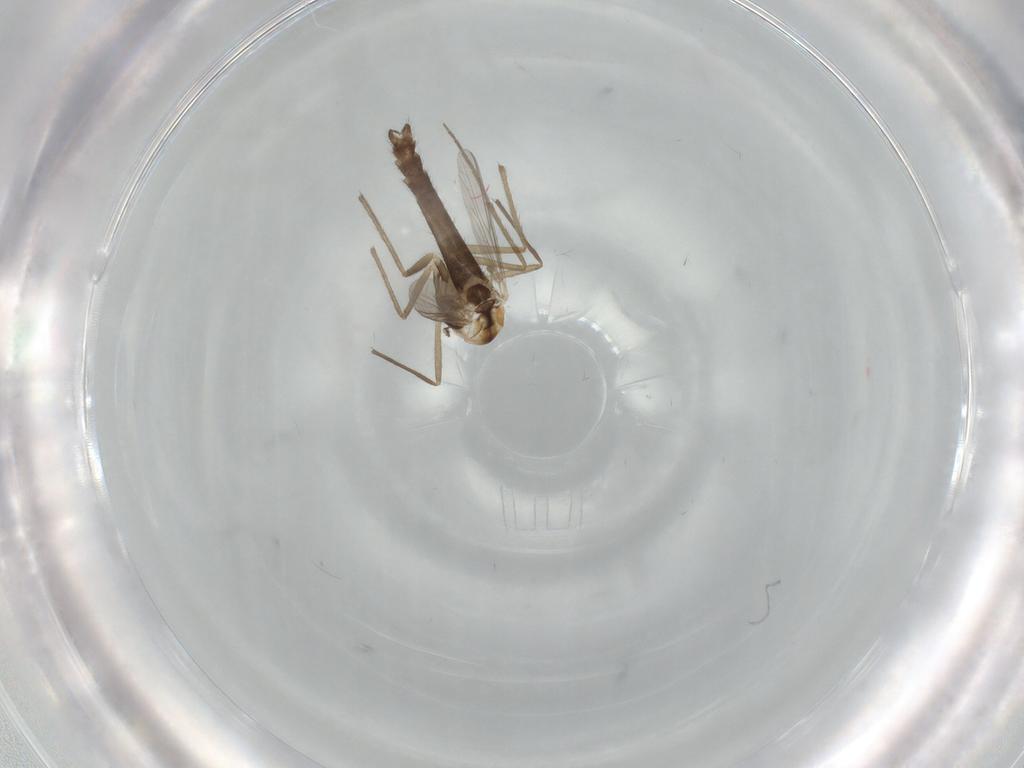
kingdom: Animalia
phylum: Arthropoda
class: Insecta
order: Diptera
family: Chironomidae
